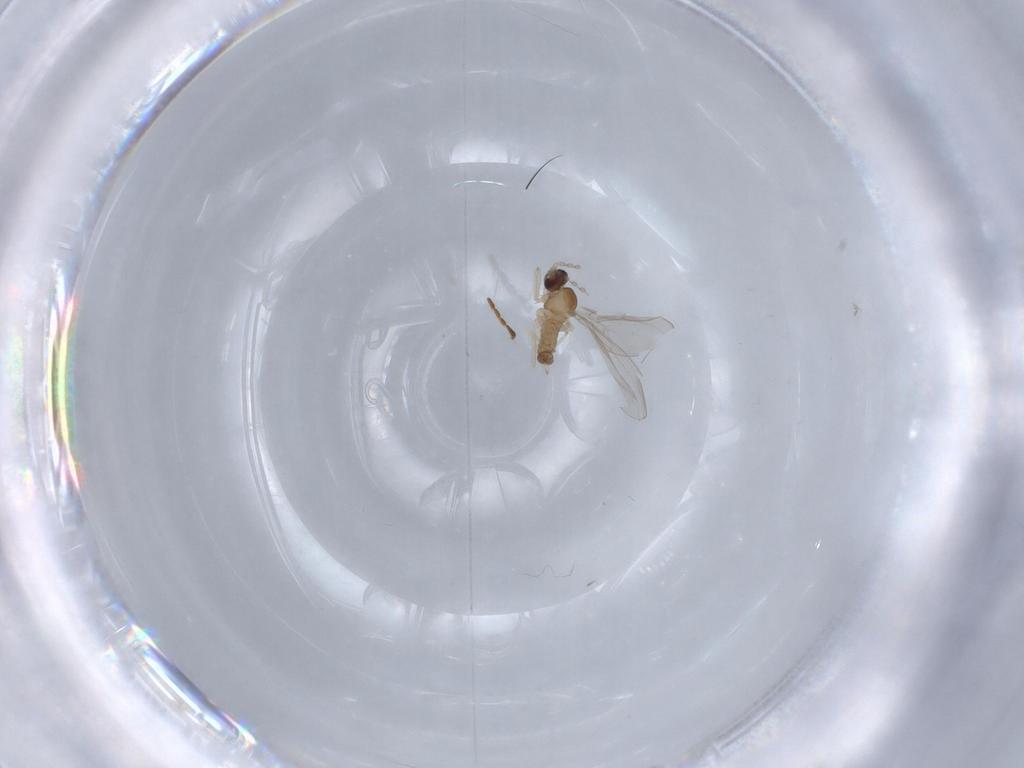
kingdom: Animalia
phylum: Arthropoda
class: Insecta
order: Diptera
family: Cecidomyiidae
